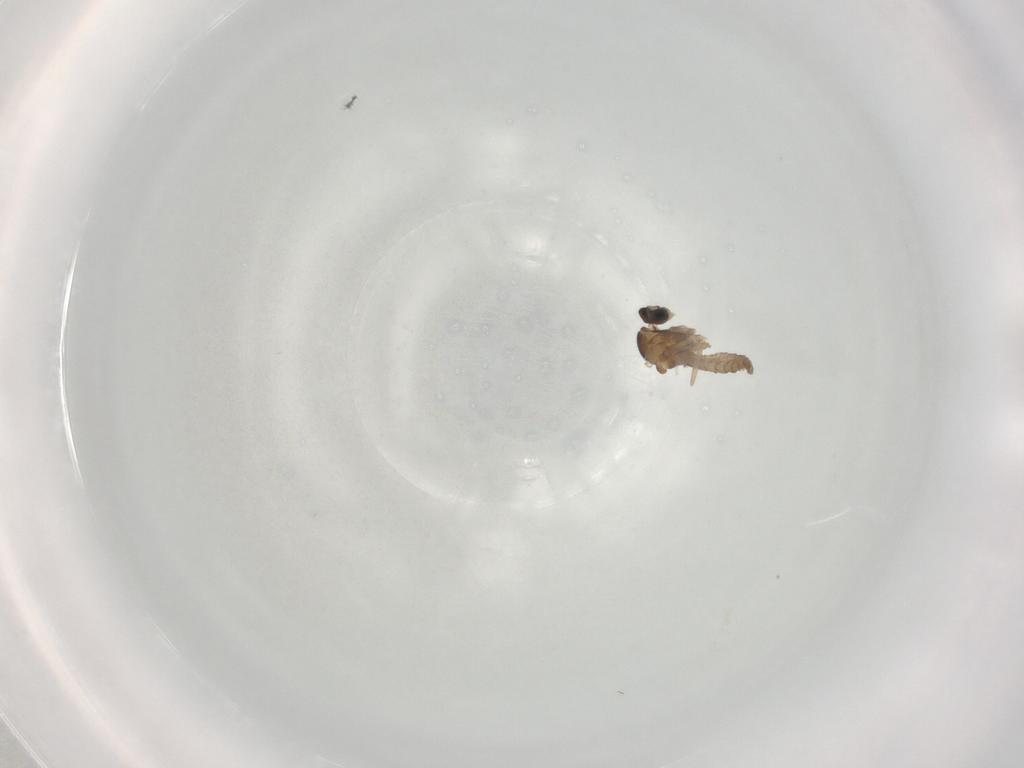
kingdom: Animalia
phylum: Arthropoda
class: Insecta
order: Diptera
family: Cecidomyiidae
